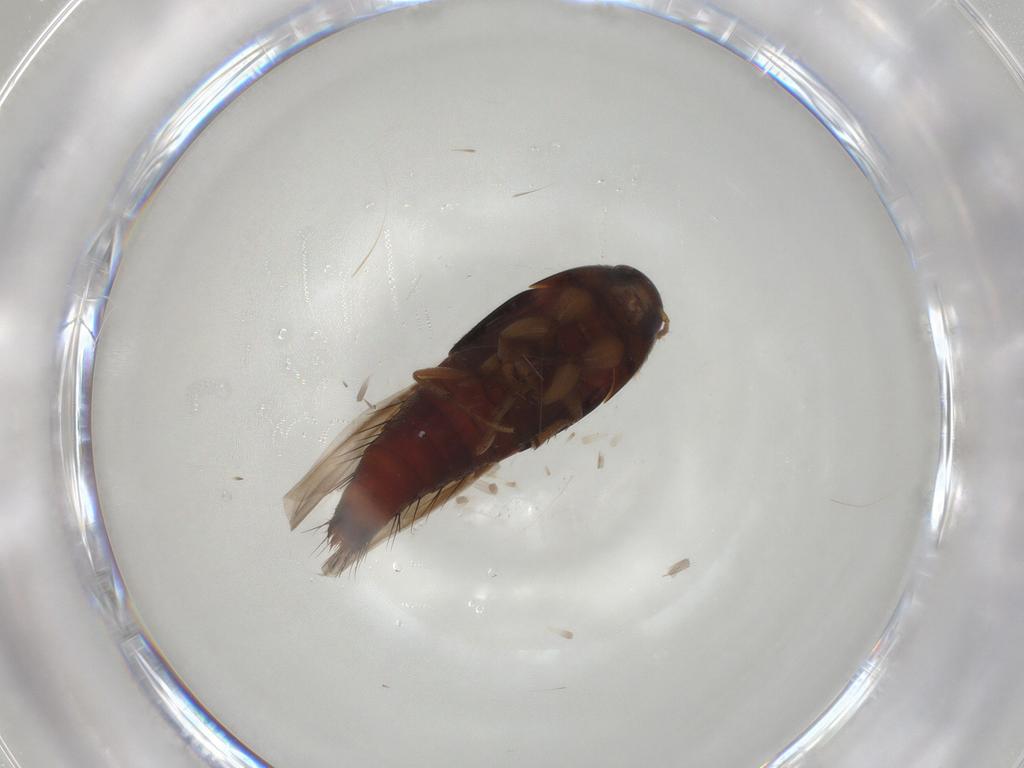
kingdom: Animalia
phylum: Arthropoda
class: Insecta
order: Coleoptera
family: Staphylinidae
